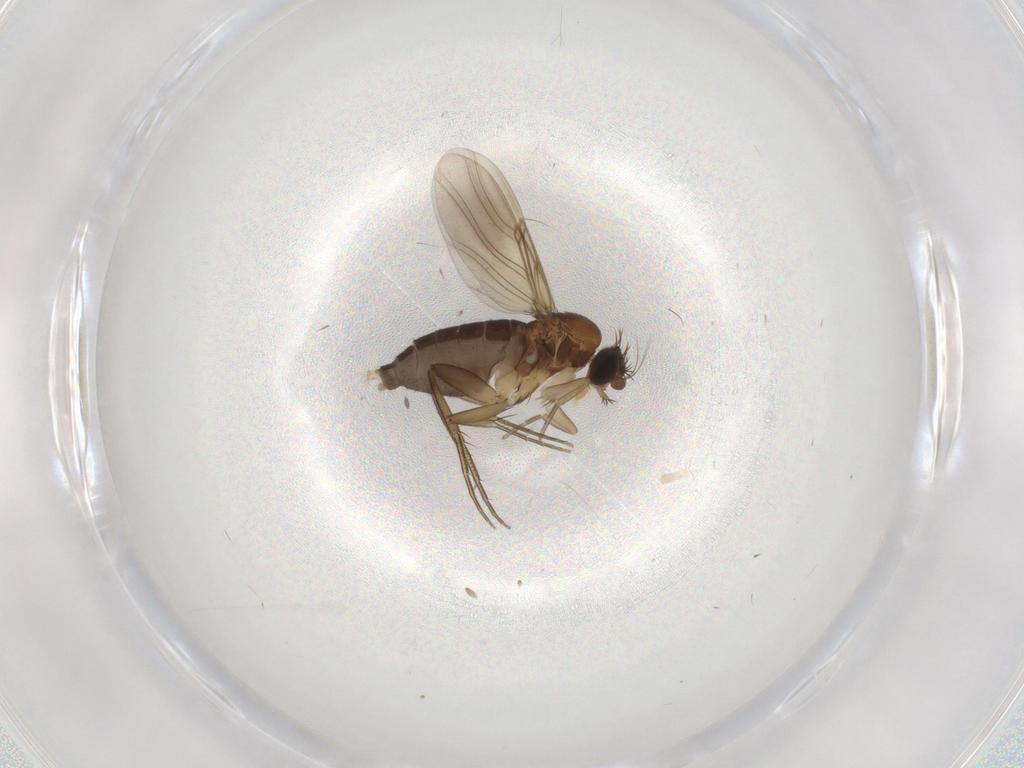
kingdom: Animalia
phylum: Arthropoda
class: Insecta
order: Diptera
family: Phoridae
